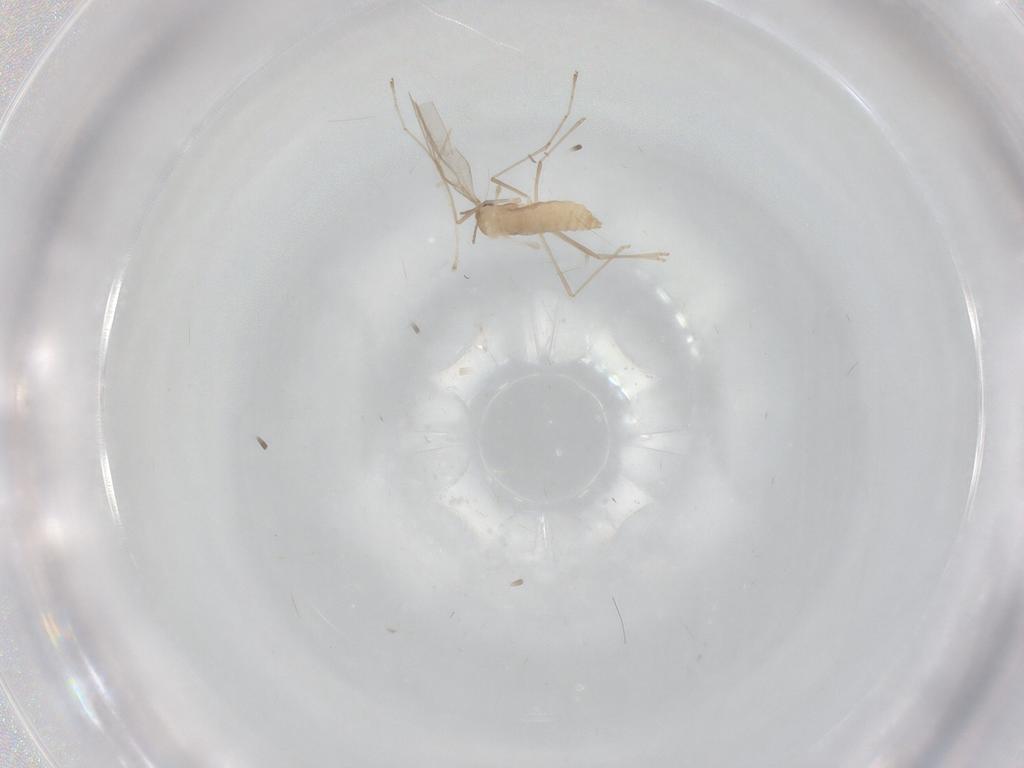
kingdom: Animalia
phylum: Arthropoda
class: Insecta
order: Diptera
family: Cecidomyiidae
